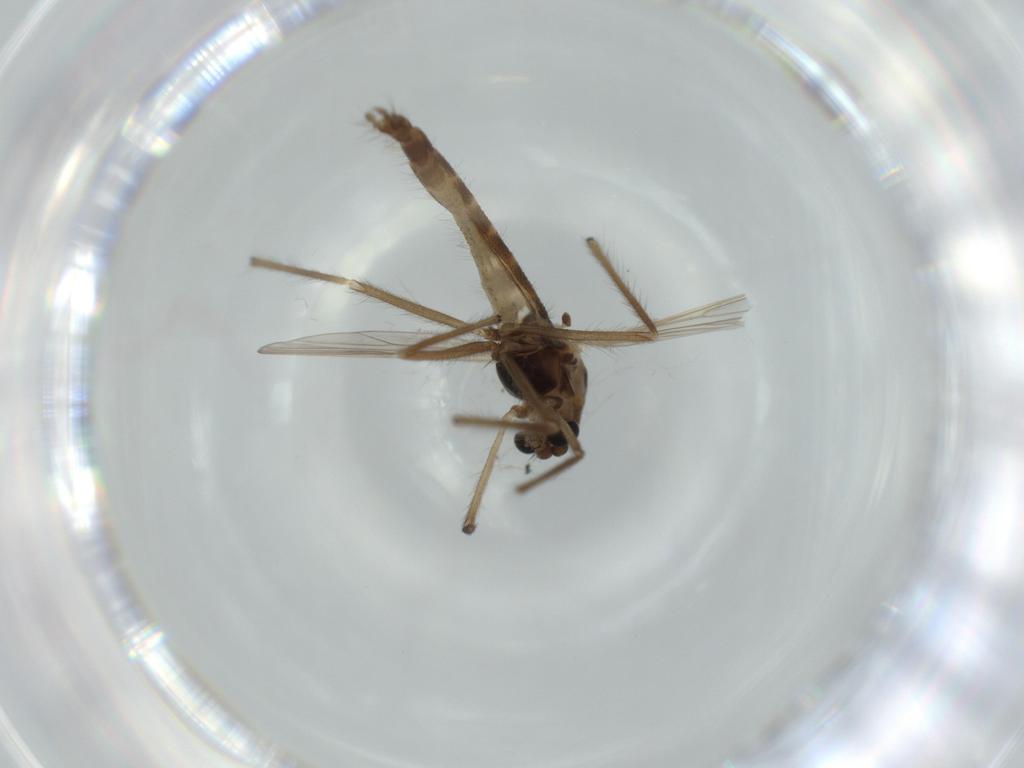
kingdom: Animalia
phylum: Arthropoda
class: Insecta
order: Diptera
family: Chironomidae
